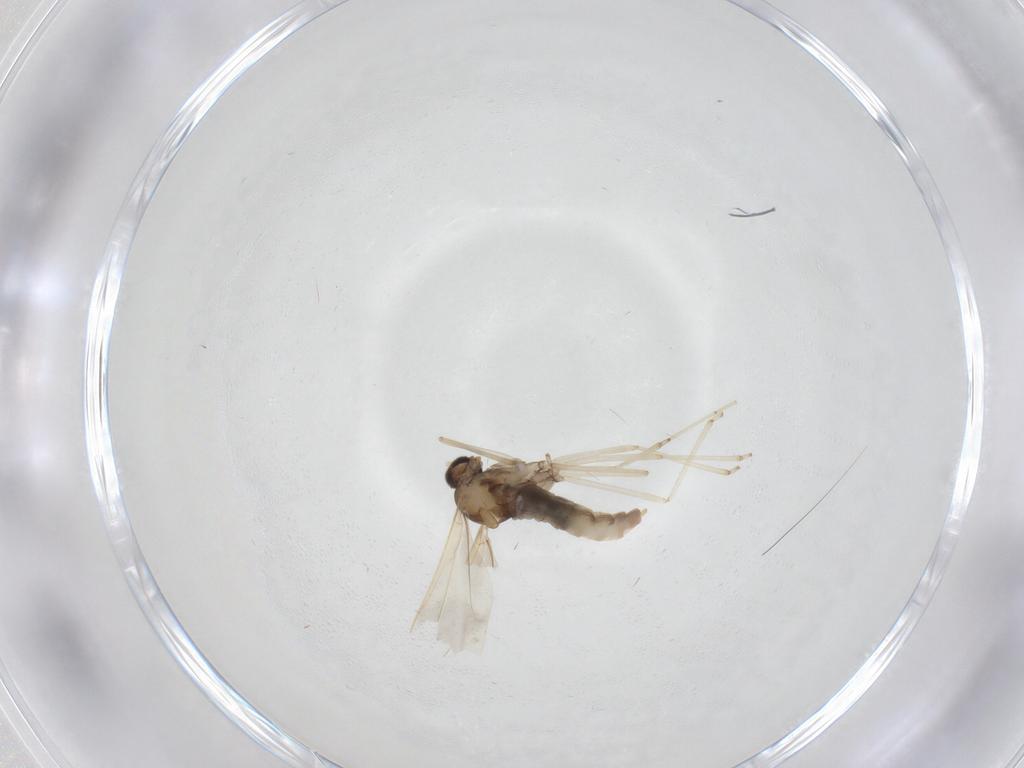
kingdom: Animalia
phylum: Arthropoda
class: Insecta
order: Diptera
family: Cecidomyiidae
